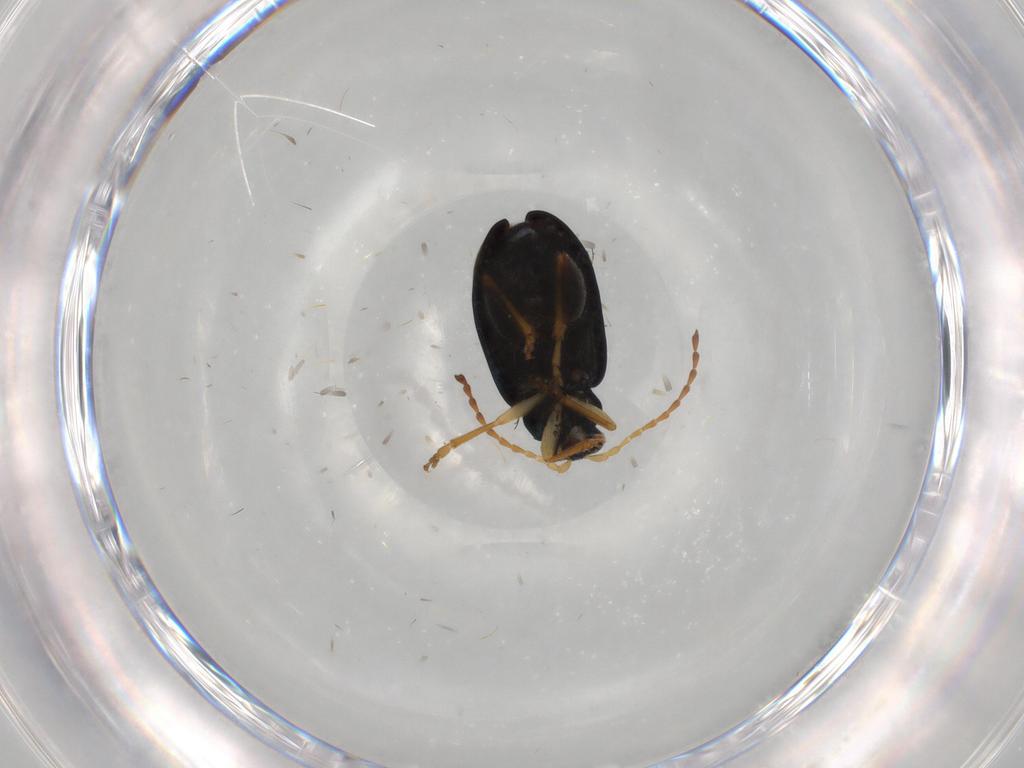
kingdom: Animalia
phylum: Arthropoda
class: Insecta
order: Coleoptera
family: Chrysomelidae
